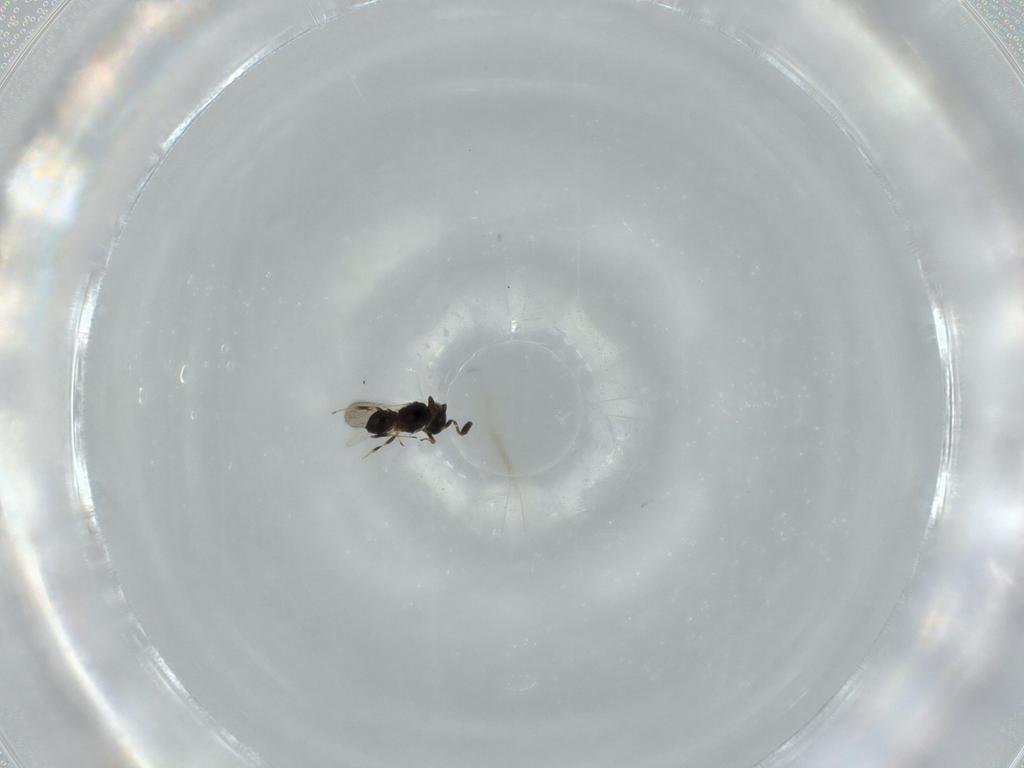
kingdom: Animalia
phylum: Arthropoda
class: Insecta
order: Hymenoptera
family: Scelionidae
